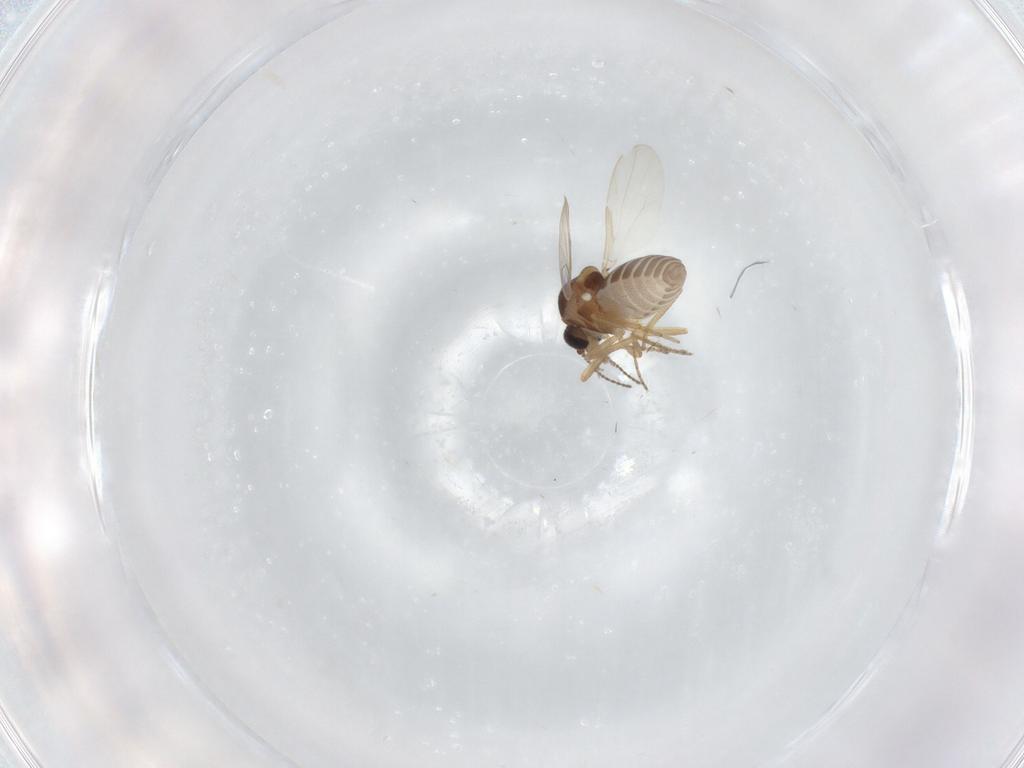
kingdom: Animalia
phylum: Arthropoda
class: Insecta
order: Diptera
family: Ceratopogonidae
